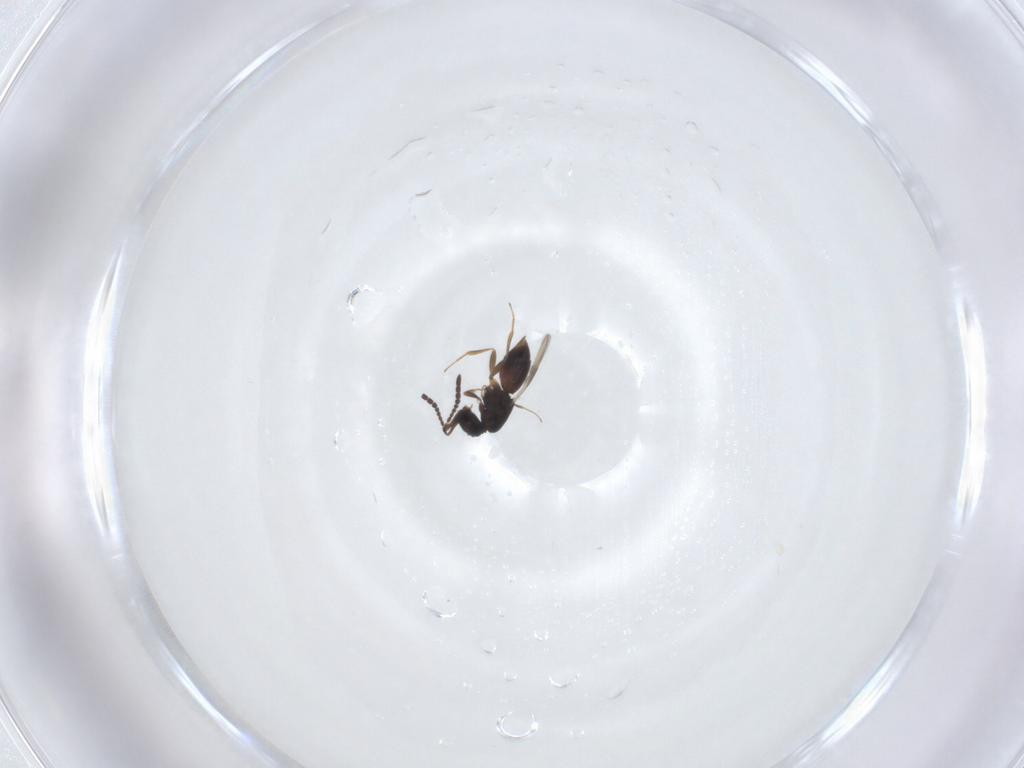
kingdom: Animalia
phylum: Arthropoda
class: Insecta
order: Hymenoptera
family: Ceraphronidae
